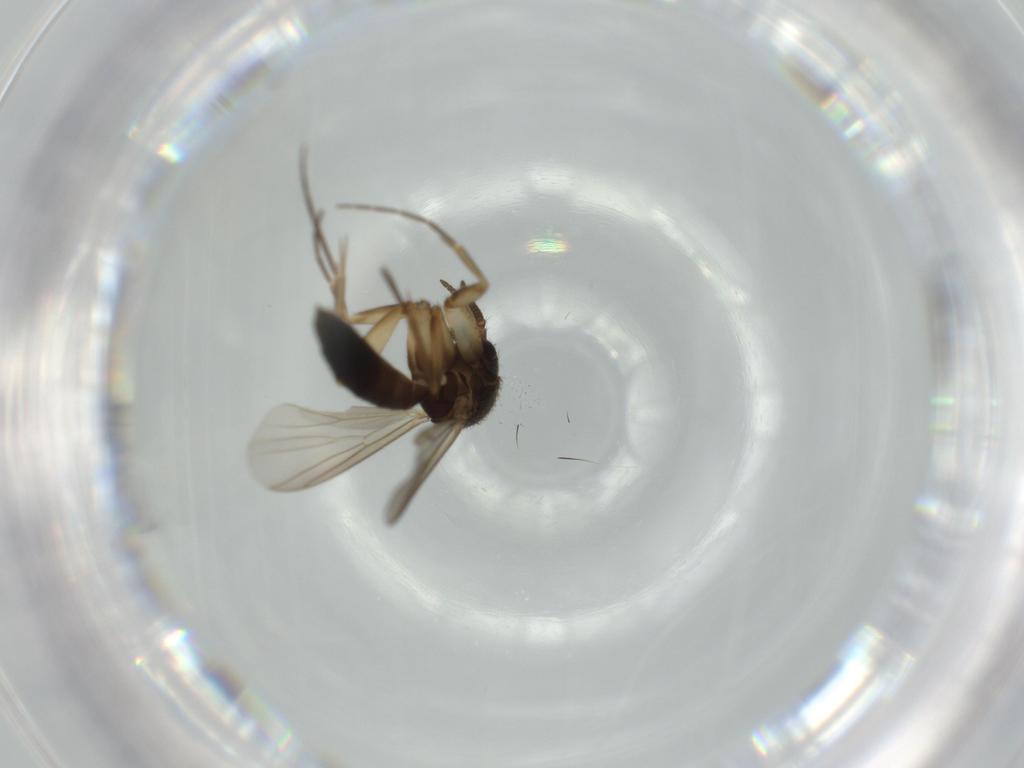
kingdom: Animalia
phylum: Arthropoda
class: Insecta
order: Diptera
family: Mycetophilidae
